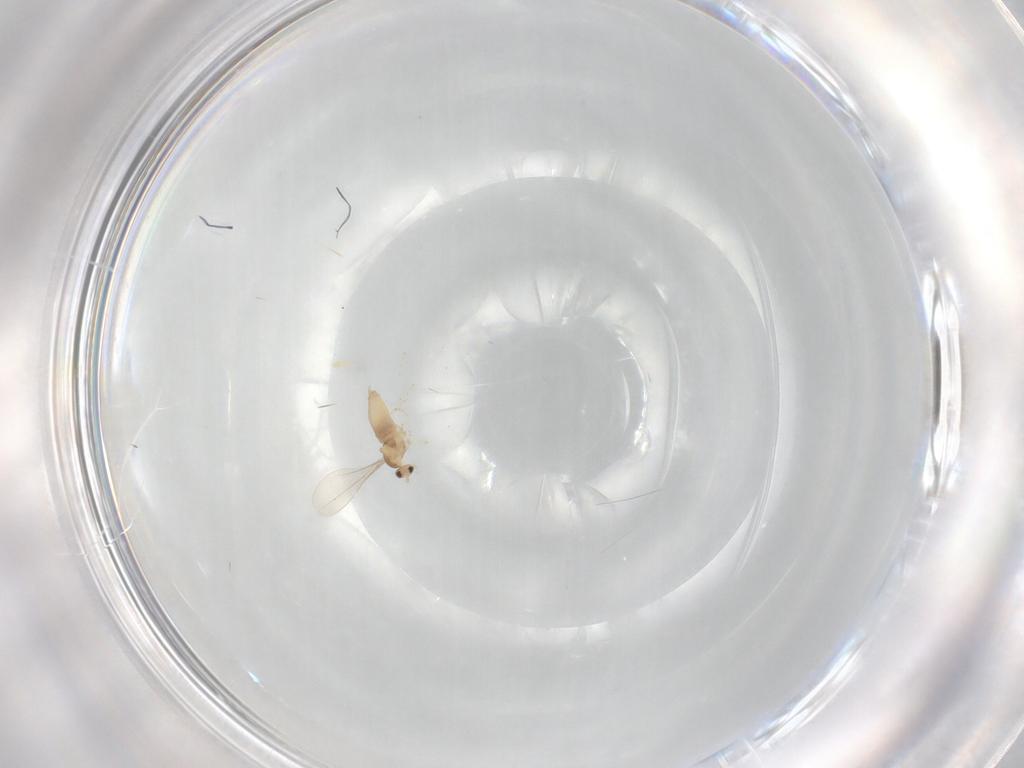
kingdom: Animalia
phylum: Arthropoda
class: Insecta
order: Diptera
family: Cecidomyiidae
